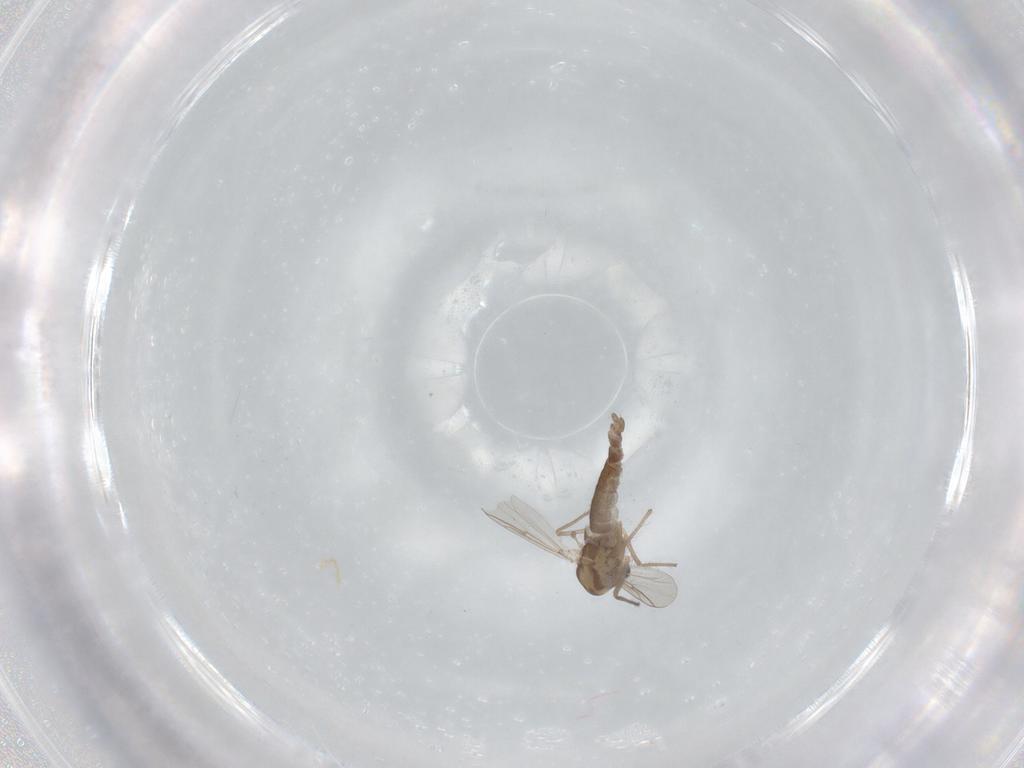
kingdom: Animalia
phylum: Arthropoda
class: Insecta
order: Diptera
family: Chironomidae
